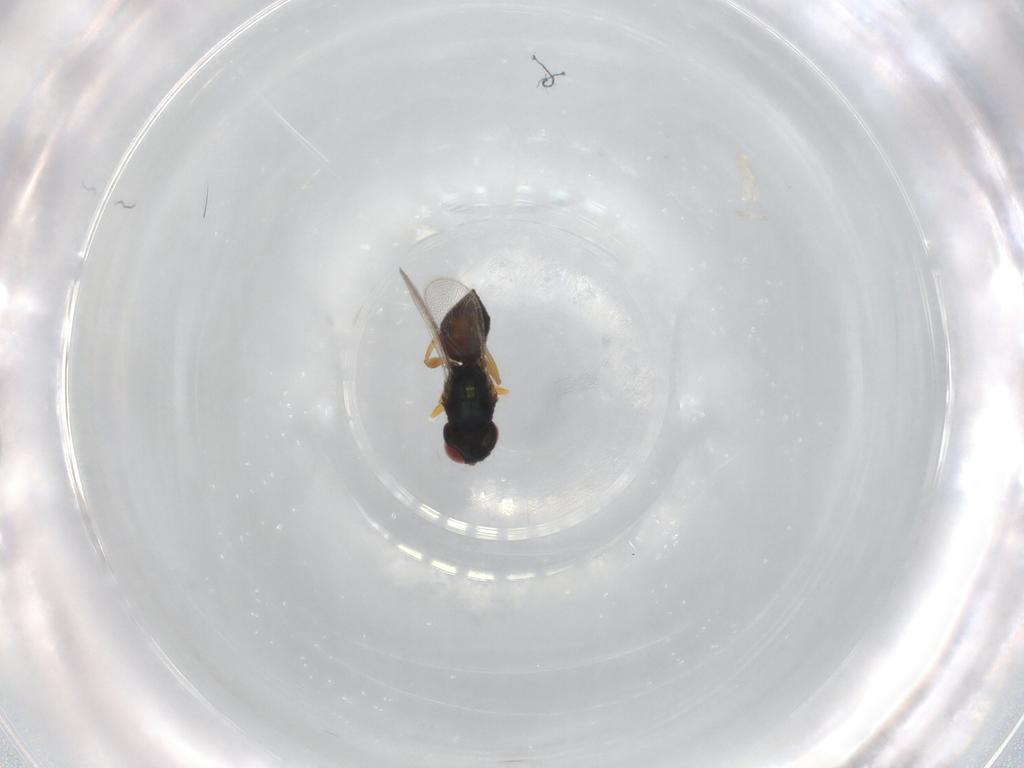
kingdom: Animalia
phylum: Arthropoda
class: Insecta
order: Hymenoptera
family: Eulophidae
